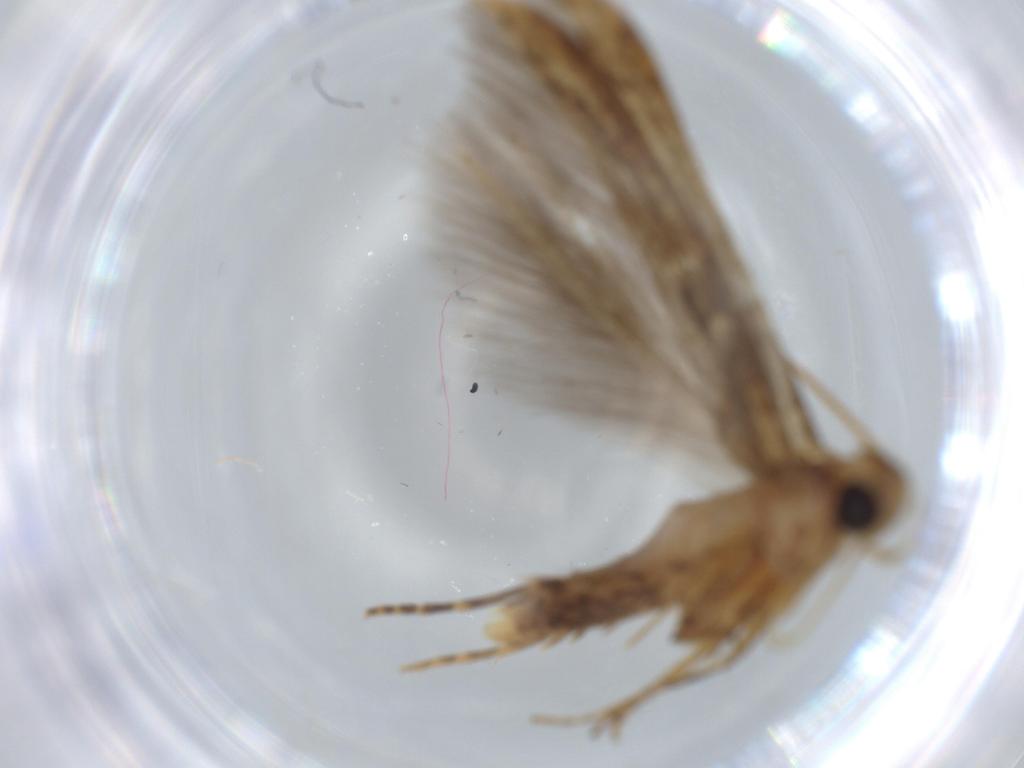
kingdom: Animalia
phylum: Arthropoda
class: Insecta
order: Lepidoptera
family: Batrachedridae
